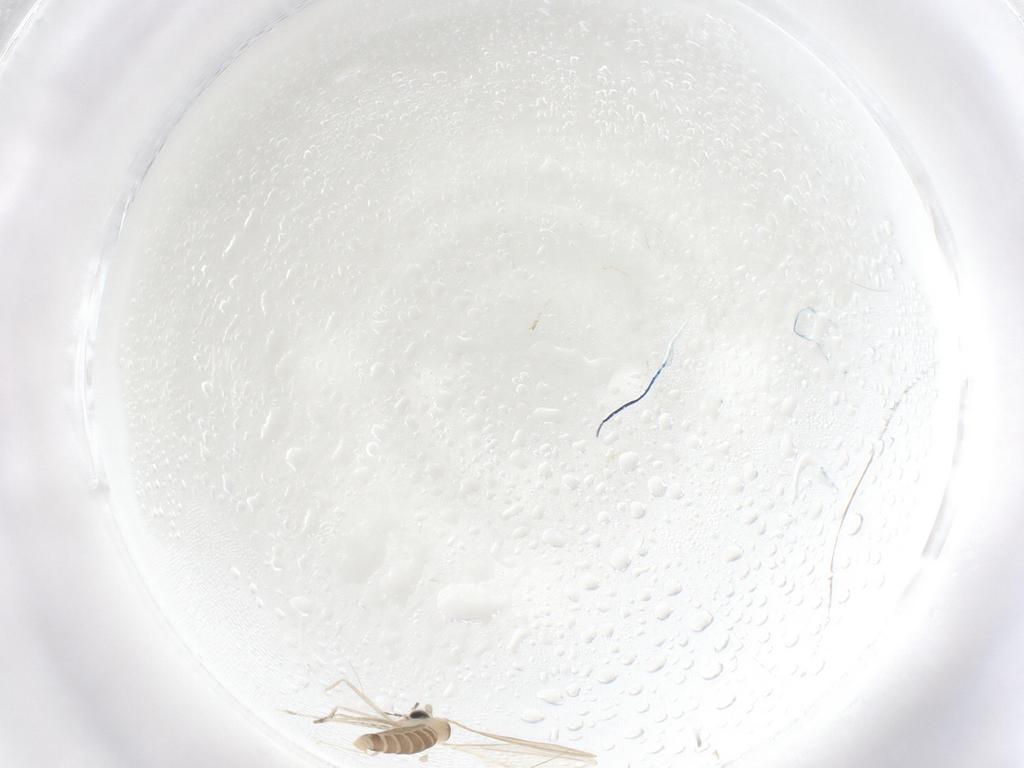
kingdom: Animalia
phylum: Arthropoda
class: Insecta
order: Diptera
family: Cecidomyiidae
